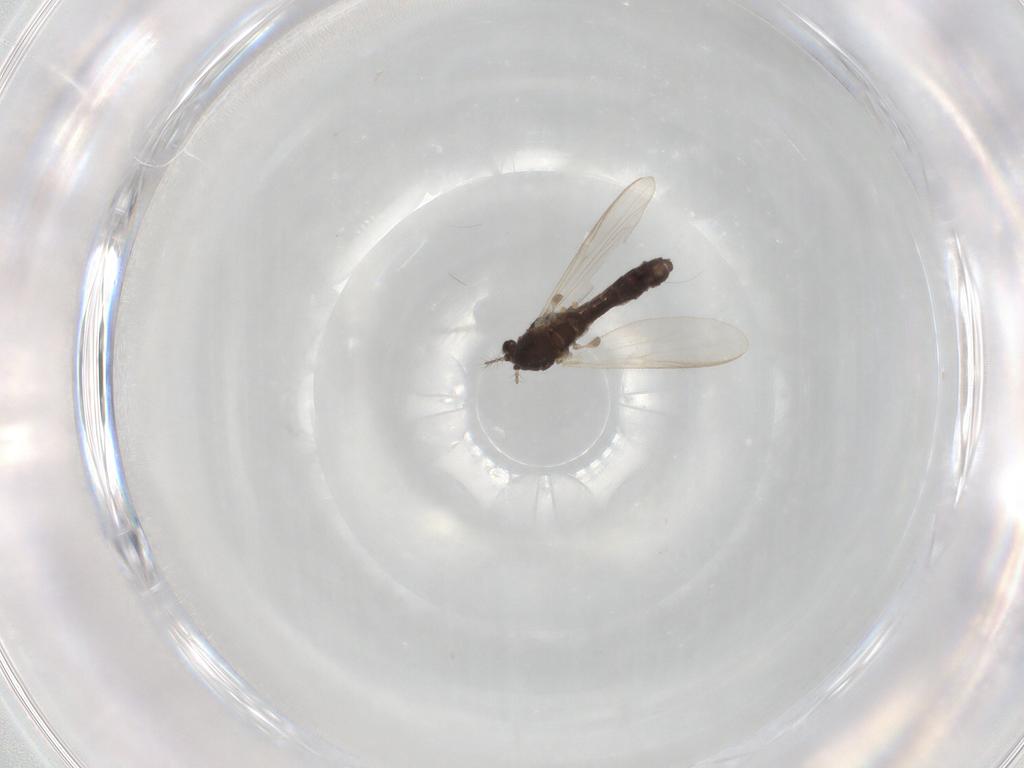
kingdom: Animalia
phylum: Arthropoda
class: Insecta
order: Diptera
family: Chironomidae
